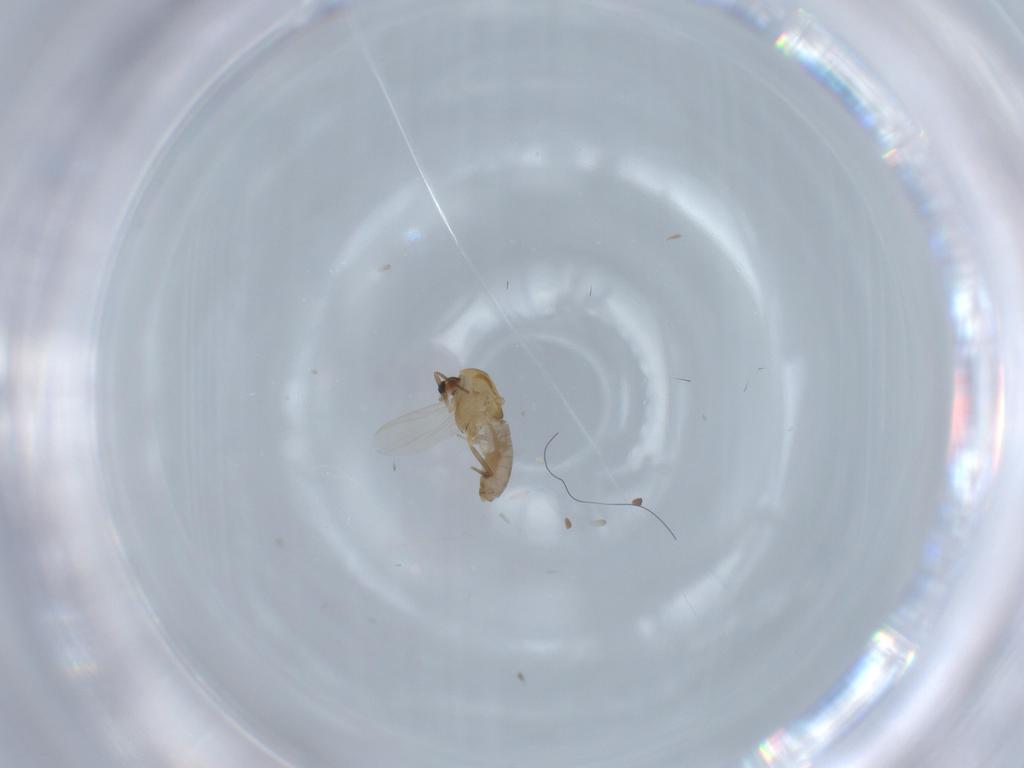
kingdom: Animalia
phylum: Arthropoda
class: Insecta
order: Diptera
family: Chironomidae
